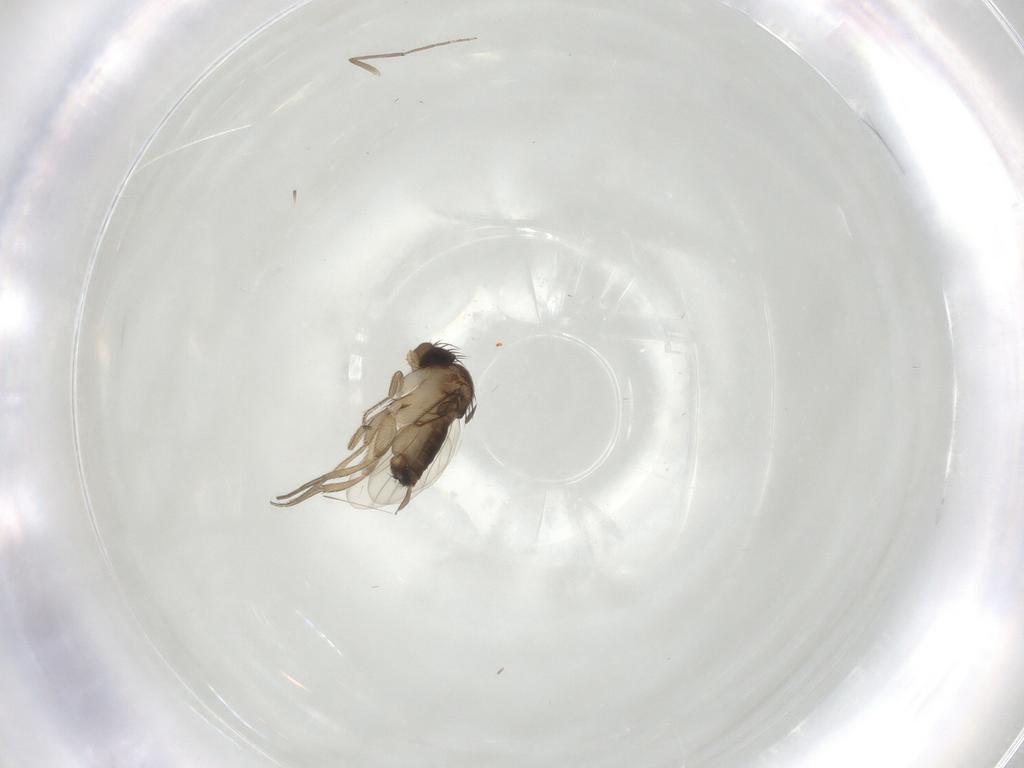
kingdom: Animalia
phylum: Arthropoda
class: Insecta
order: Diptera
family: Chironomidae
